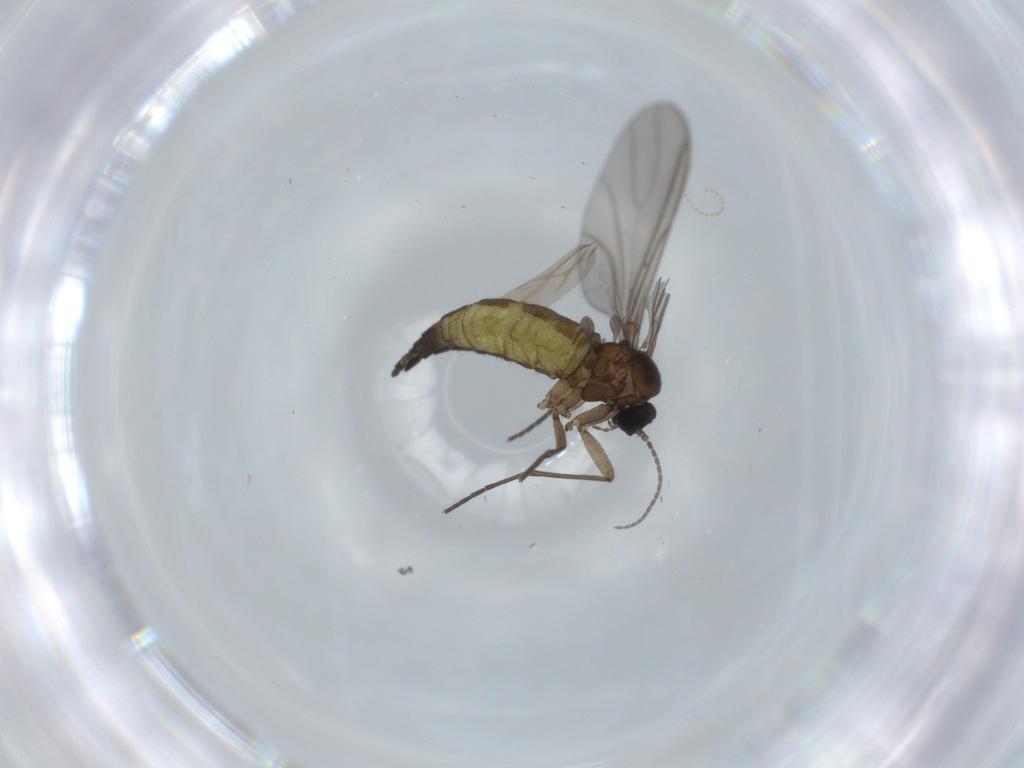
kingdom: Animalia
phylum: Arthropoda
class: Insecta
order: Diptera
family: Sciaridae
